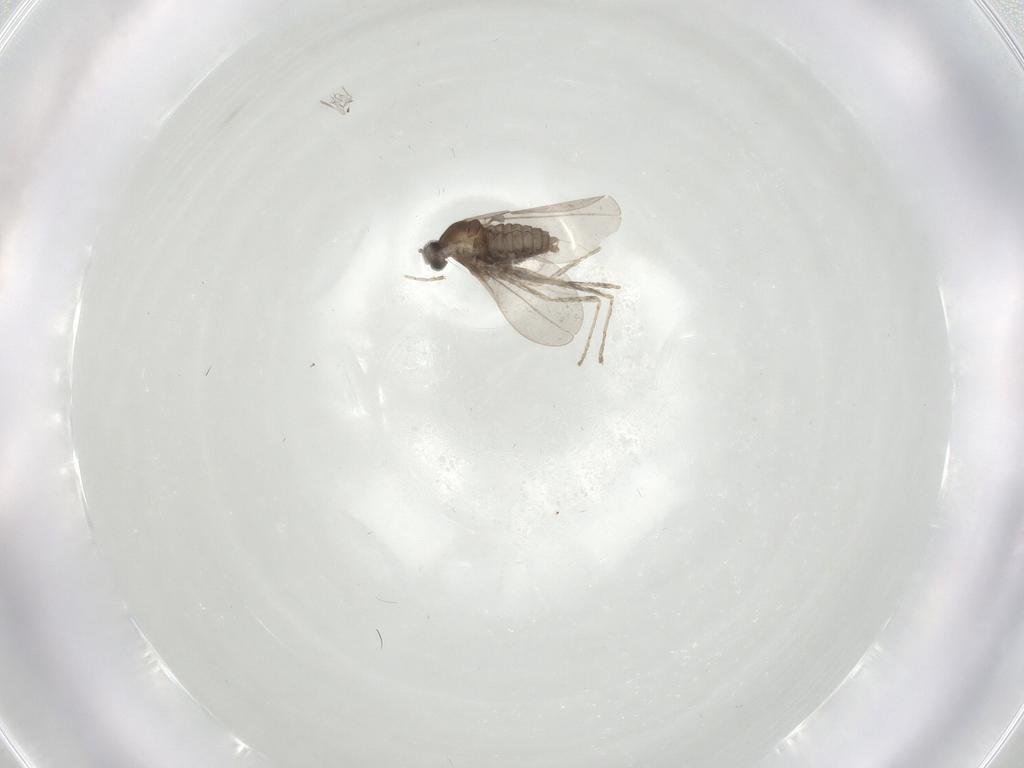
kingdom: Animalia
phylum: Arthropoda
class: Insecta
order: Diptera
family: Cecidomyiidae
